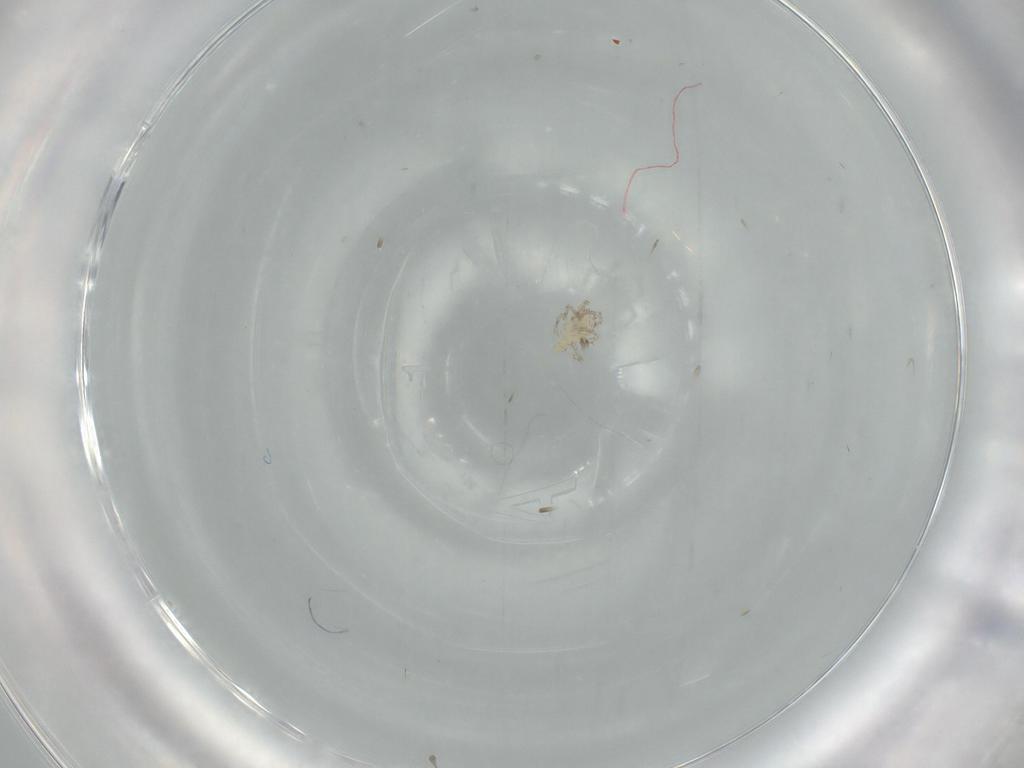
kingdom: Animalia
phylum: Arthropoda
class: Arachnida
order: Trombidiformes
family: Erythraeidae
